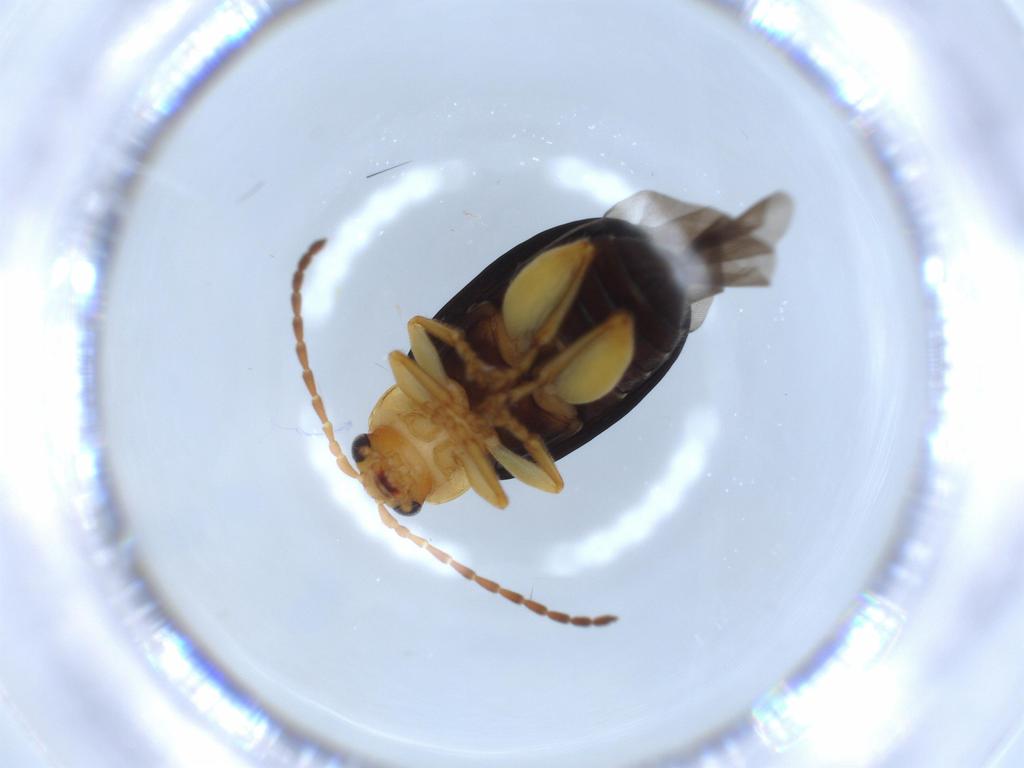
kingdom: Animalia
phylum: Arthropoda
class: Insecta
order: Coleoptera
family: Chrysomelidae
